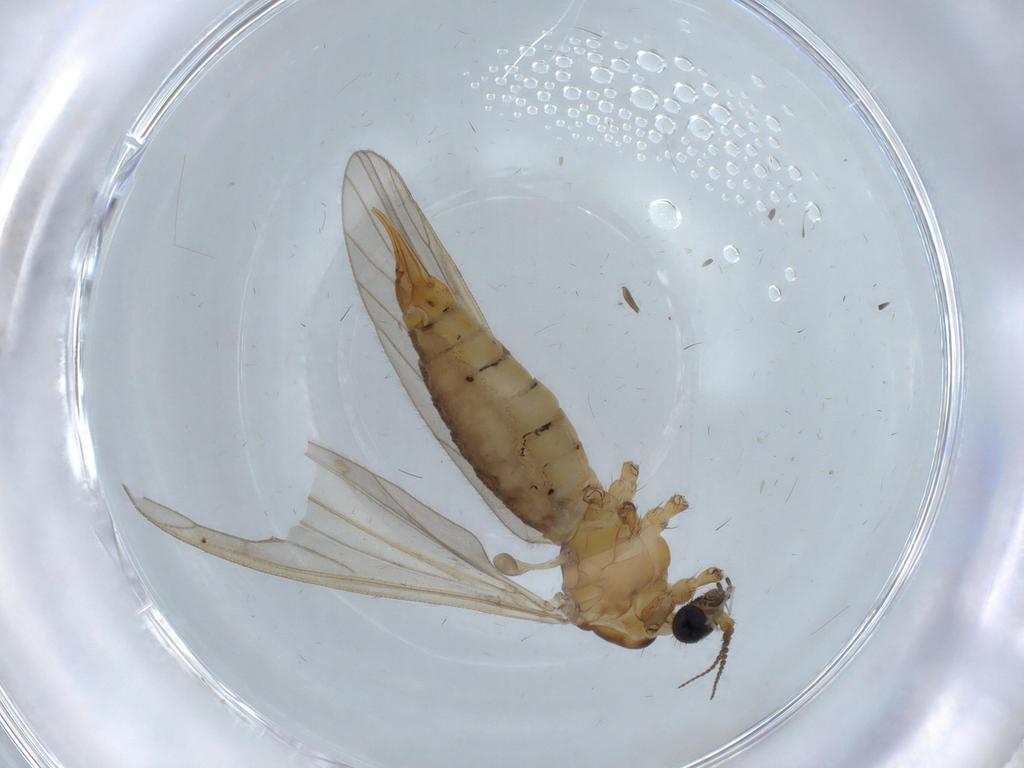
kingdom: Animalia
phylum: Arthropoda
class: Insecta
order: Diptera
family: Limoniidae
